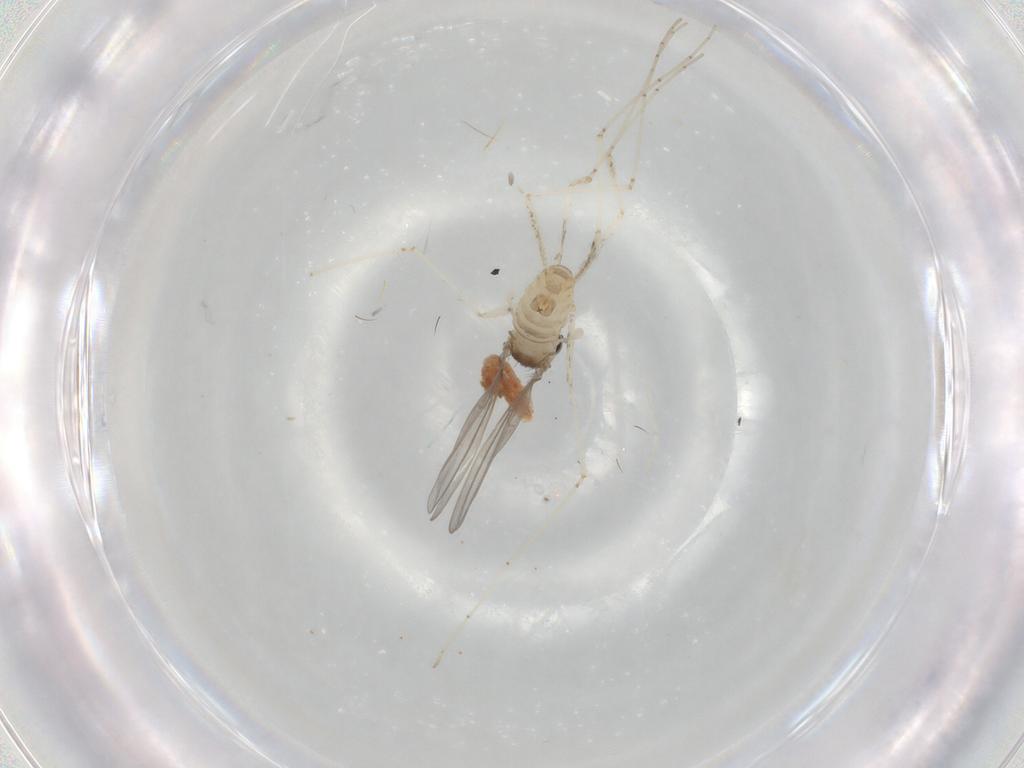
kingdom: Animalia
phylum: Arthropoda
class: Insecta
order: Diptera
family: Cecidomyiidae
